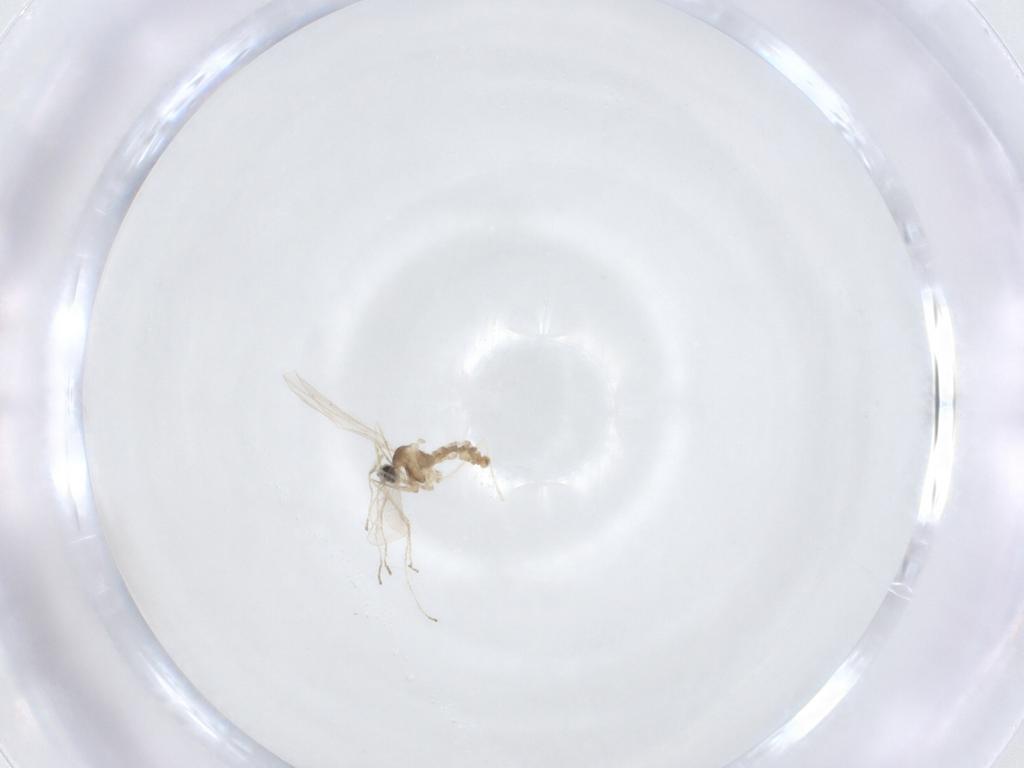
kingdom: Animalia
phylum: Arthropoda
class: Insecta
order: Diptera
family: Cecidomyiidae
